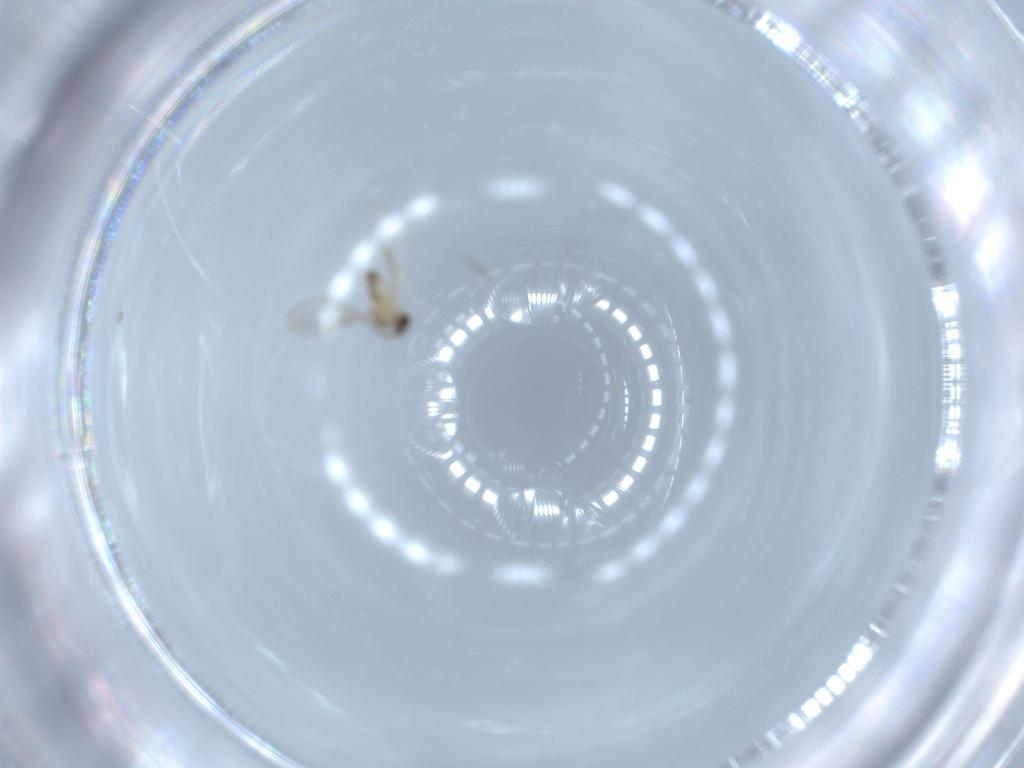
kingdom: Animalia
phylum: Arthropoda
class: Insecta
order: Diptera
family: Cecidomyiidae
